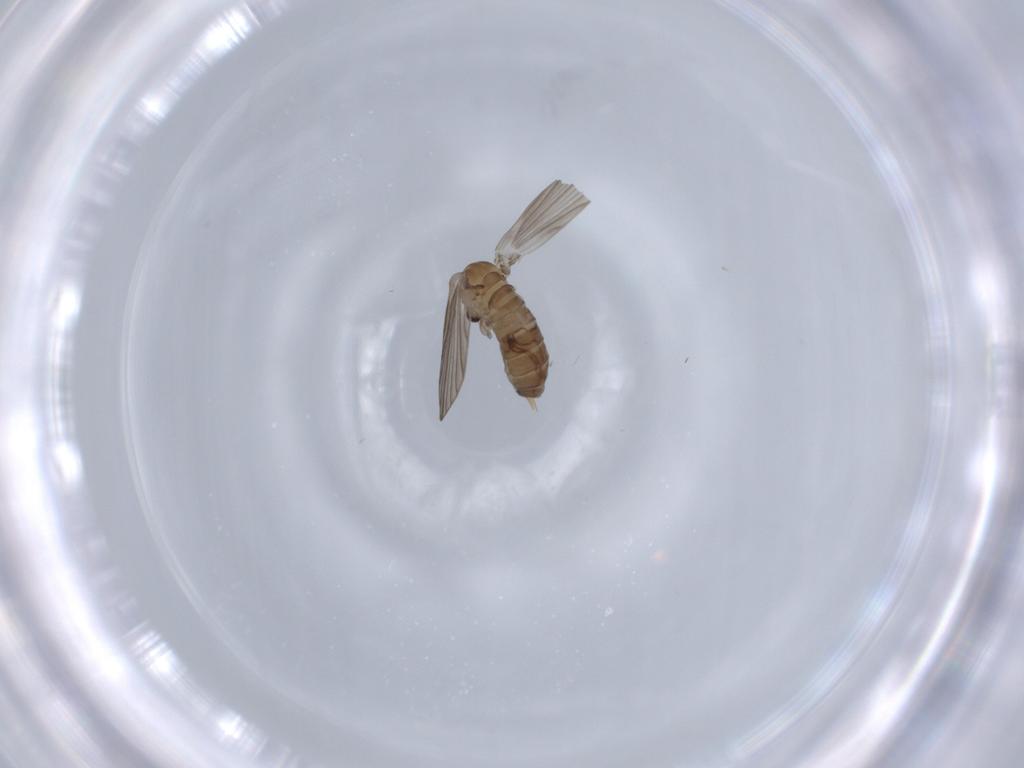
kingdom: Animalia
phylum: Arthropoda
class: Insecta
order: Diptera
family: Psychodidae
